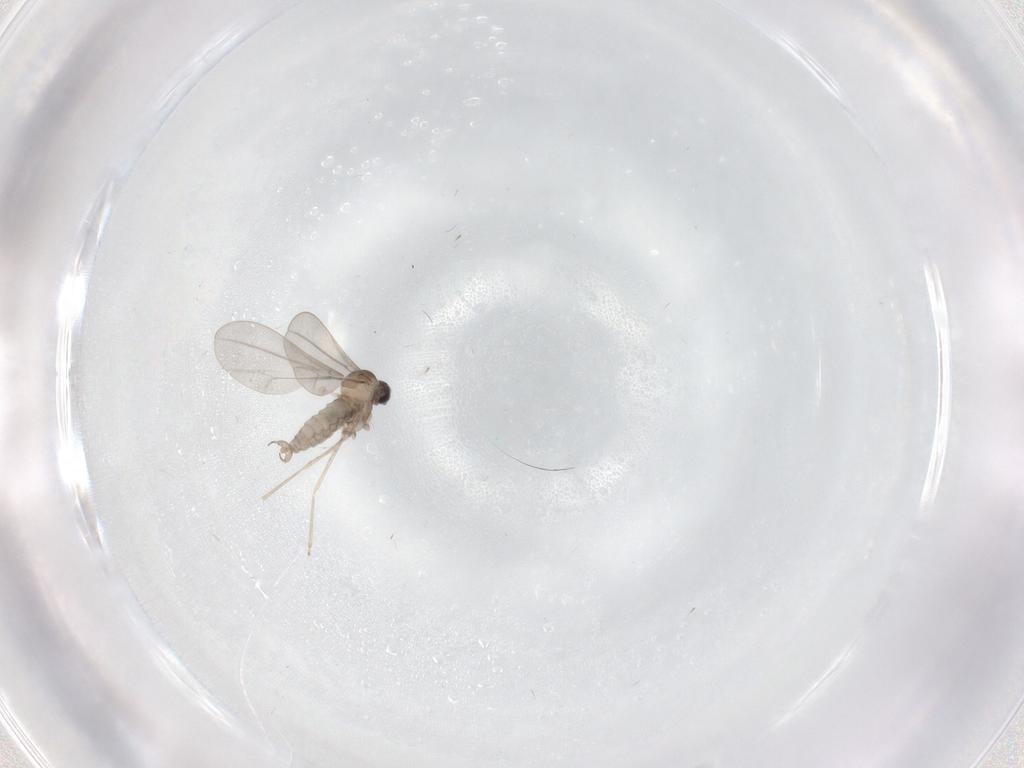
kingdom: Animalia
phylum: Arthropoda
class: Insecta
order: Diptera
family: Cecidomyiidae
